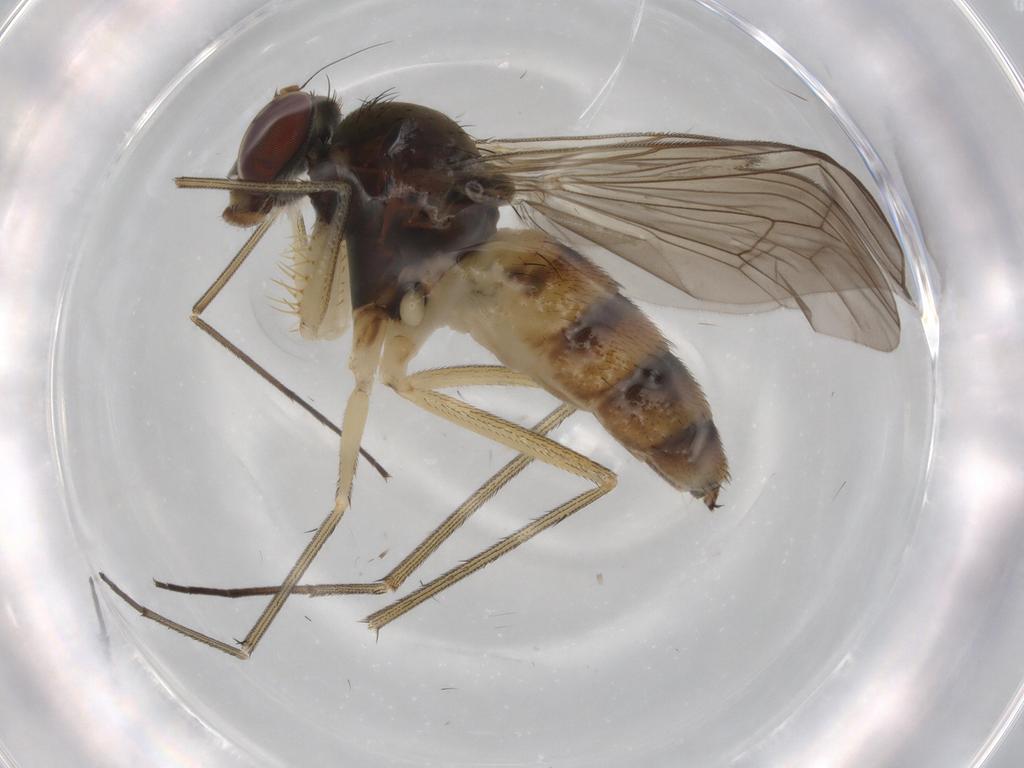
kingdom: Animalia
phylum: Arthropoda
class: Insecta
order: Diptera
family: Dolichopodidae
